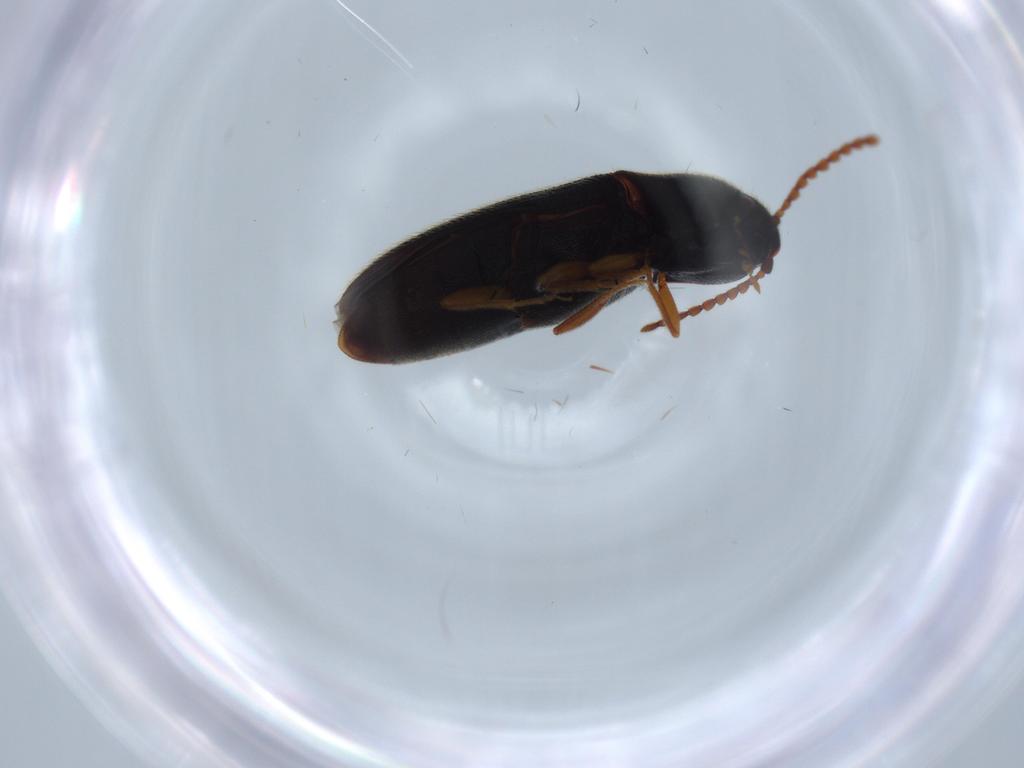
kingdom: Animalia
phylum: Arthropoda
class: Insecta
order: Coleoptera
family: Elateridae
